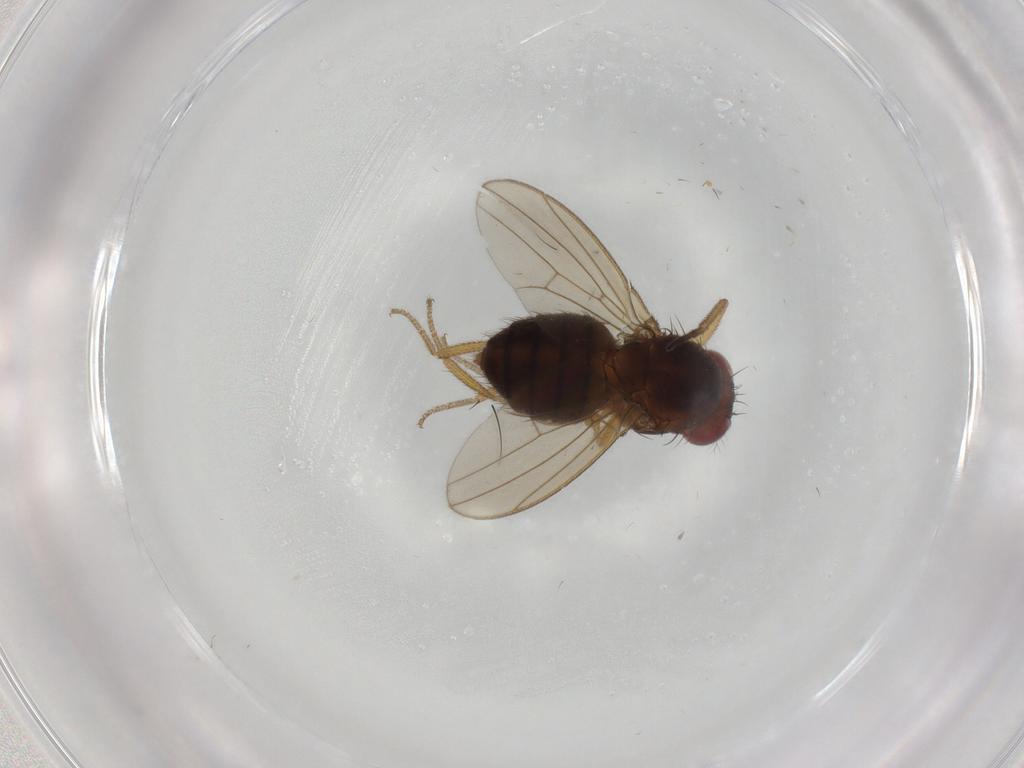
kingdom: Animalia
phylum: Arthropoda
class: Insecta
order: Diptera
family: Drosophilidae
